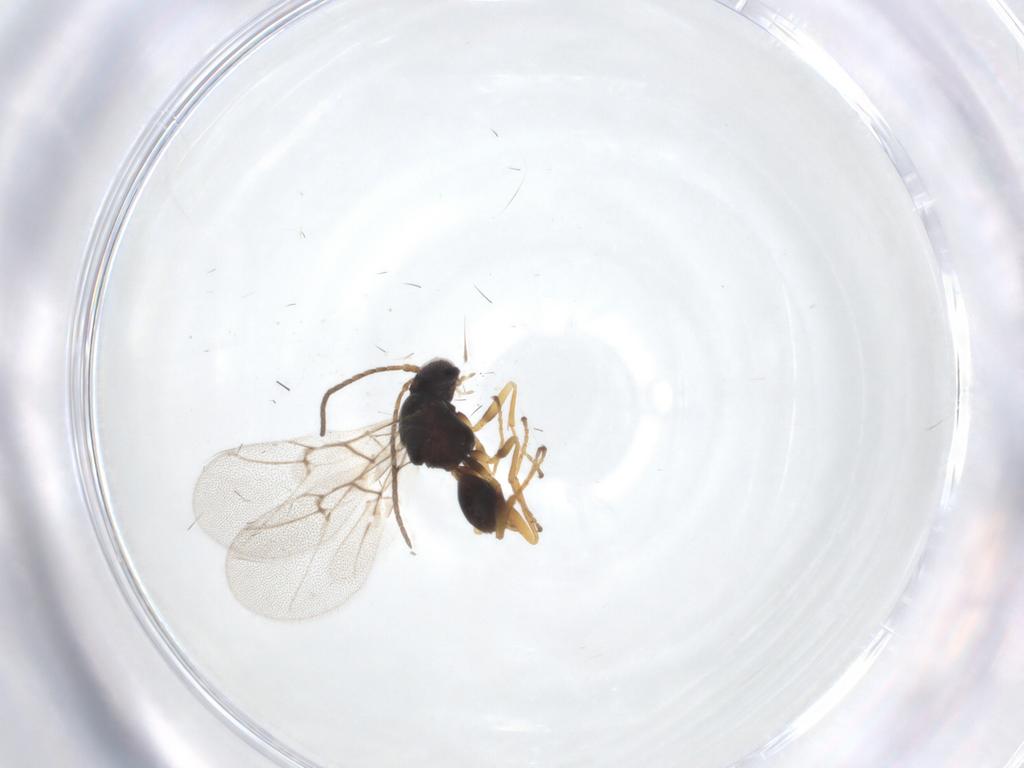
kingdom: Animalia
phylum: Arthropoda
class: Insecta
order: Hymenoptera
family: Cynipidae
